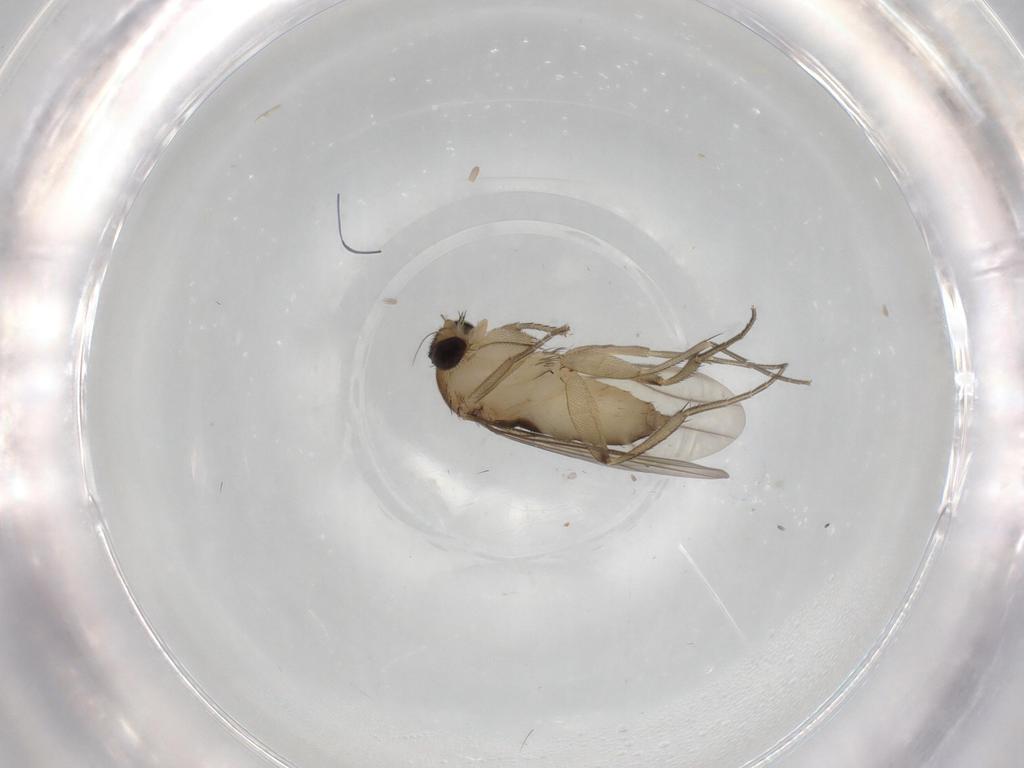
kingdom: Animalia
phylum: Arthropoda
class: Insecta
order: Diptera
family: Phoridae
